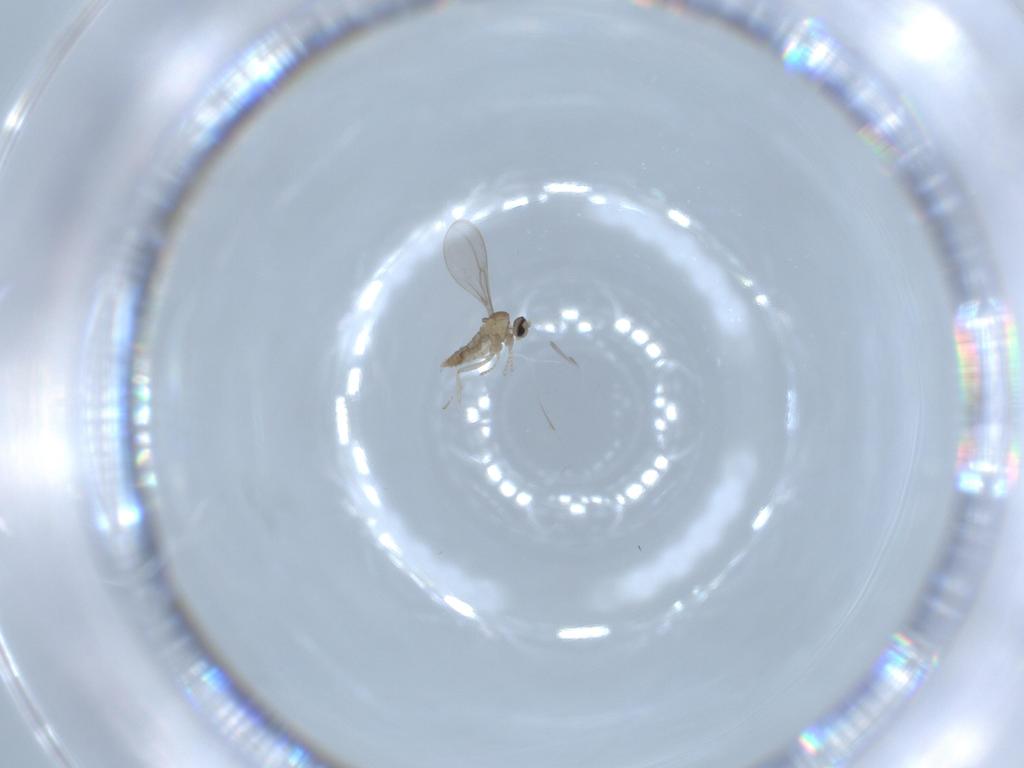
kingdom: Animalia
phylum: Arthropoda
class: Insecta
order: Diptera
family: Cecidomyiidae
